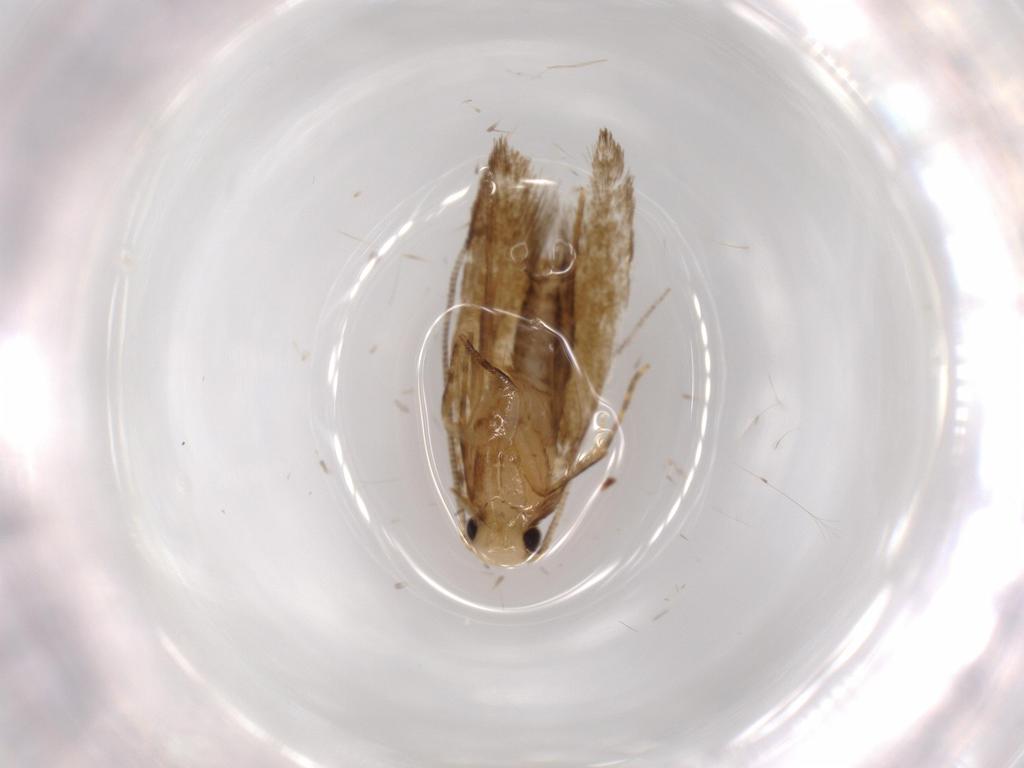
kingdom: Animalia
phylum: Arthropoda
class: Insecta
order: Lepidoptera
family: Tineidae
